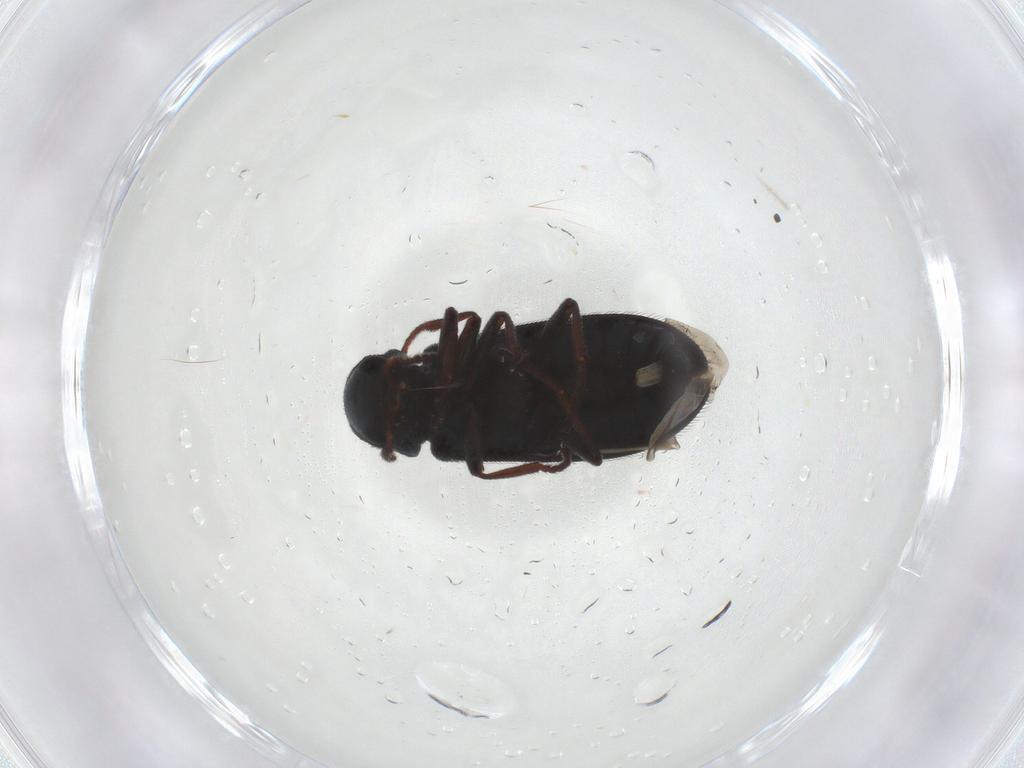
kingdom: Animalia
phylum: Arthropoda
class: Insecta
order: Coleoptera
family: Melyridae
